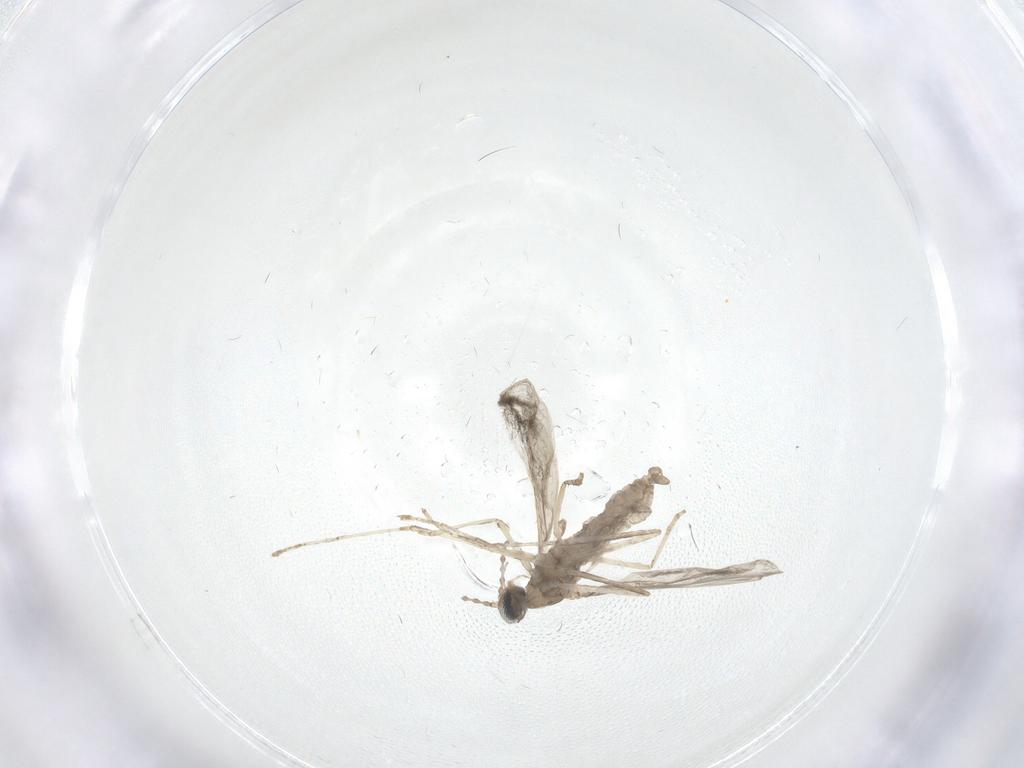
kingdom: Animalia
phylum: Arthropoda
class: Insecta
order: Diptera
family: Cecidomyiidae
